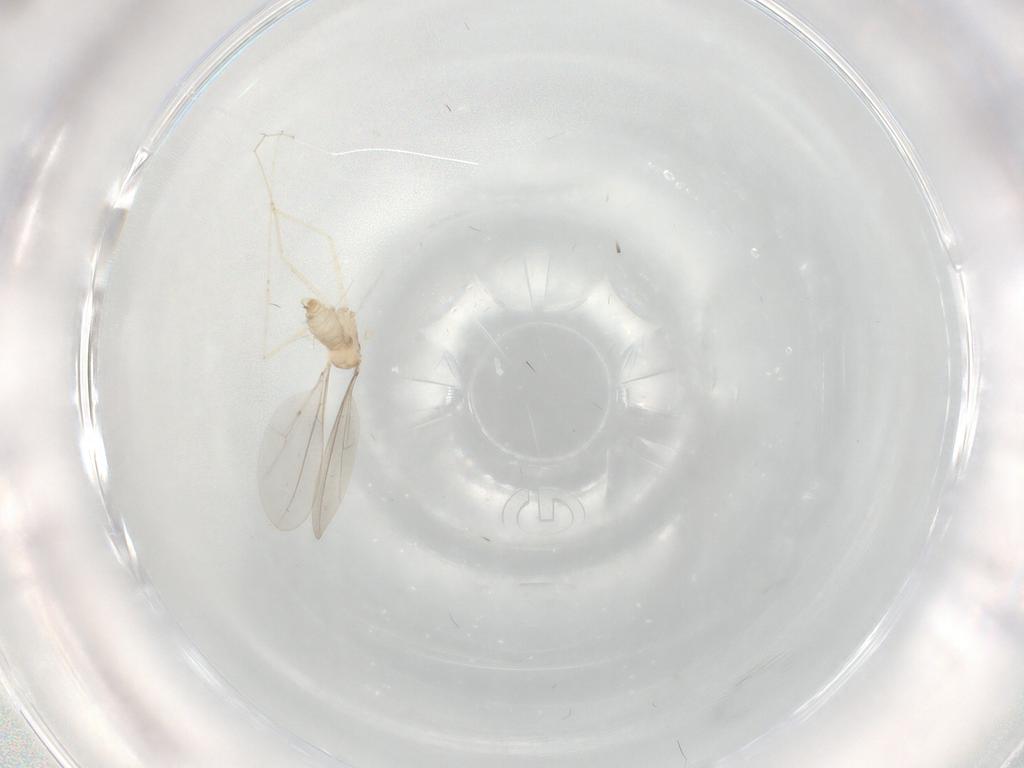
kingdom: Animalia
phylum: Arthropoda
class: Insecta
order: Diptera
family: Cecidomyiidae
